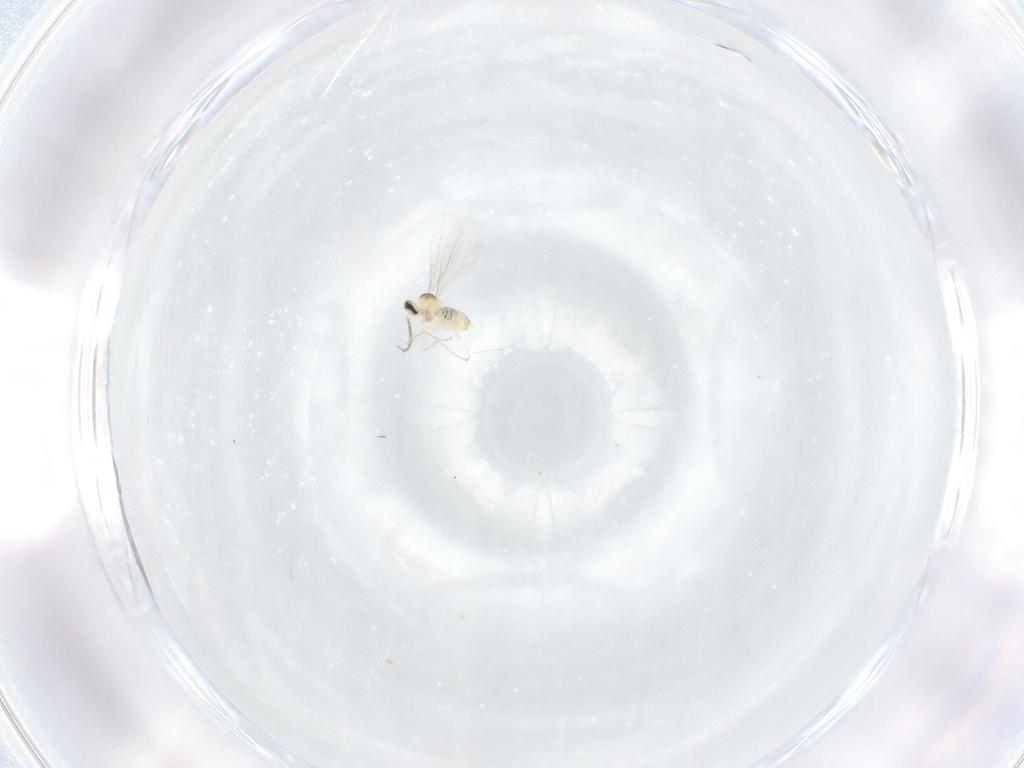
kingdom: Animalia
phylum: Arthropoda
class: Insecta
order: Diptera
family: Cecidomyiidae
